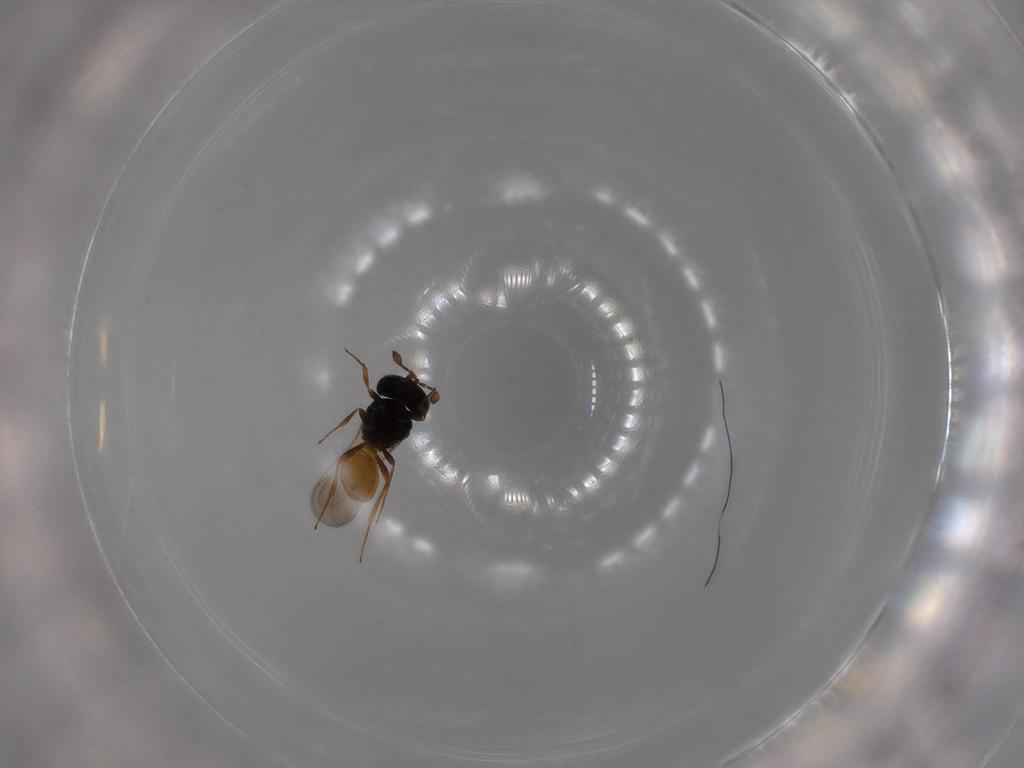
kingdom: Animalia
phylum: Arthropoda
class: Insecta
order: Hymenoptera
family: Scelionidae
